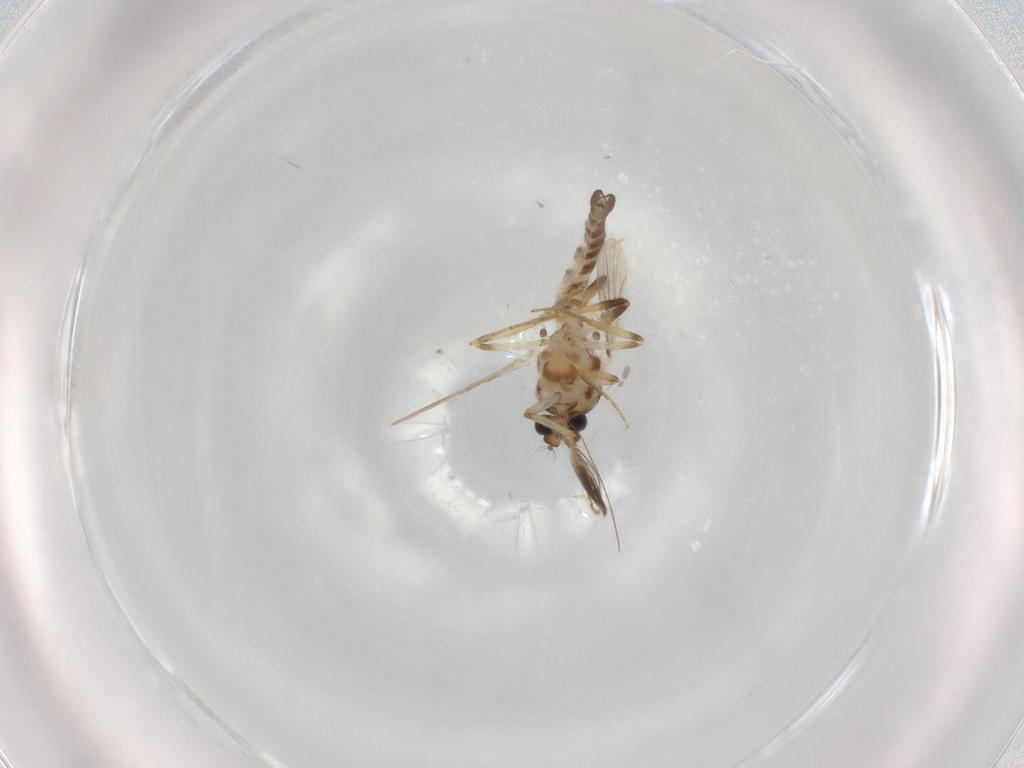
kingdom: Animalia
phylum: Arthropoda
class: Insecta
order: Diptera
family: Ceratopogonidae
